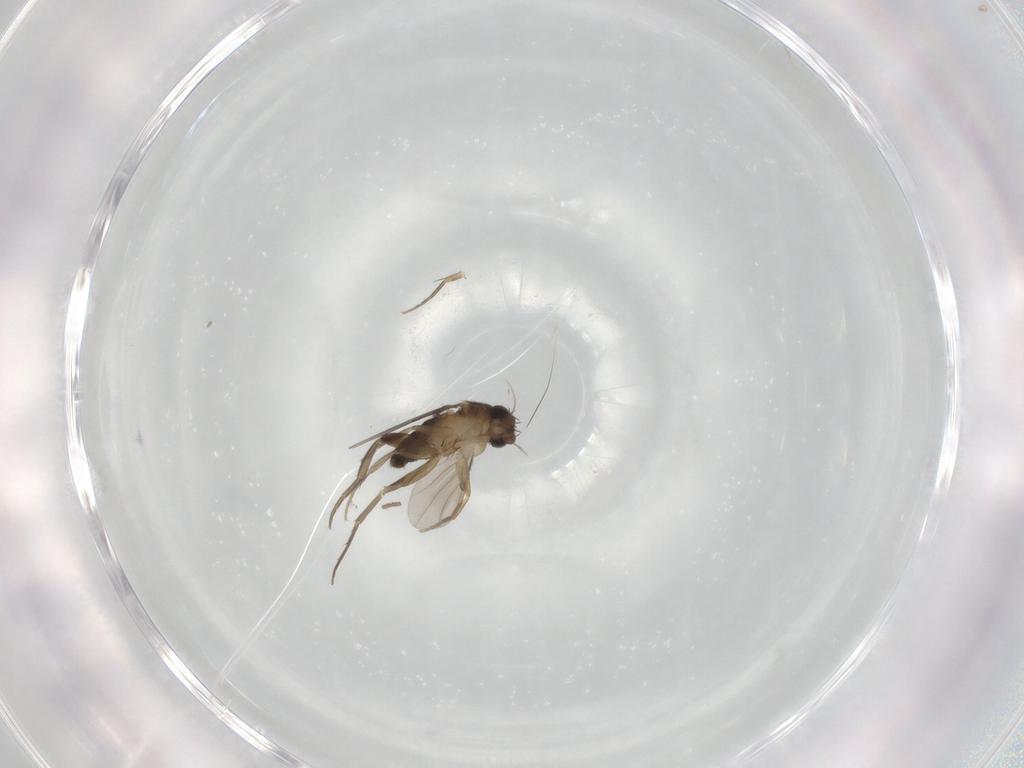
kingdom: Animalia
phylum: Arthropoda
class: Insecta
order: Diptera
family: Phoridae
